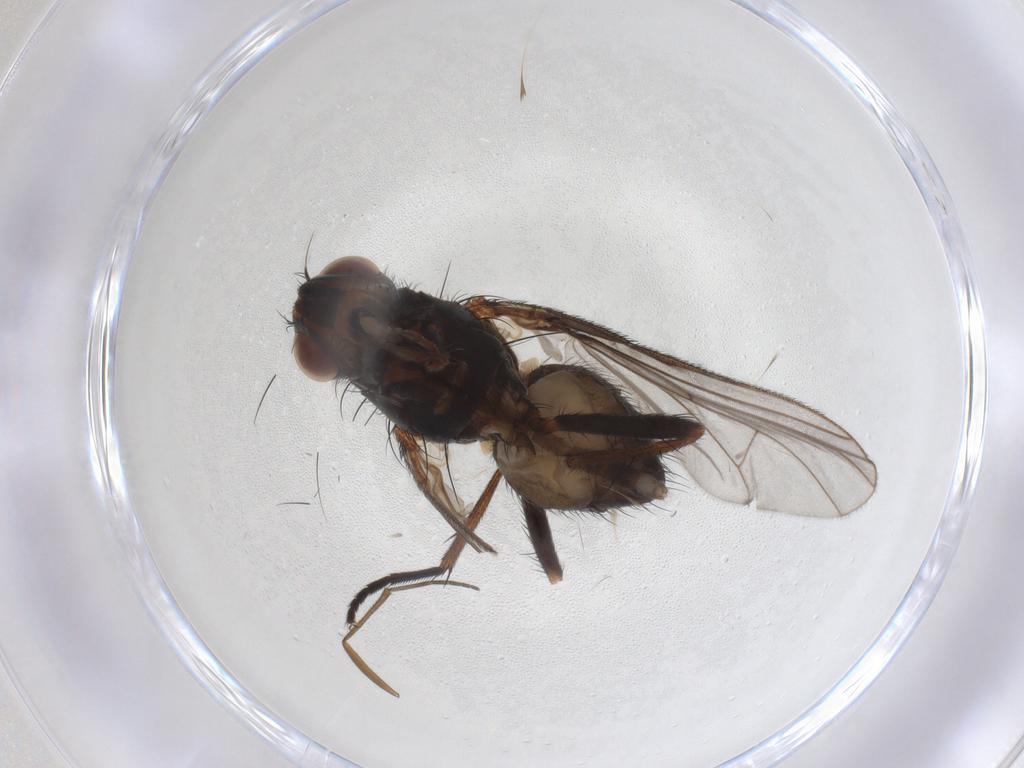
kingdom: Animalia
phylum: Arthropoda
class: Insecta
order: Diptera
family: Anthomyiidae
